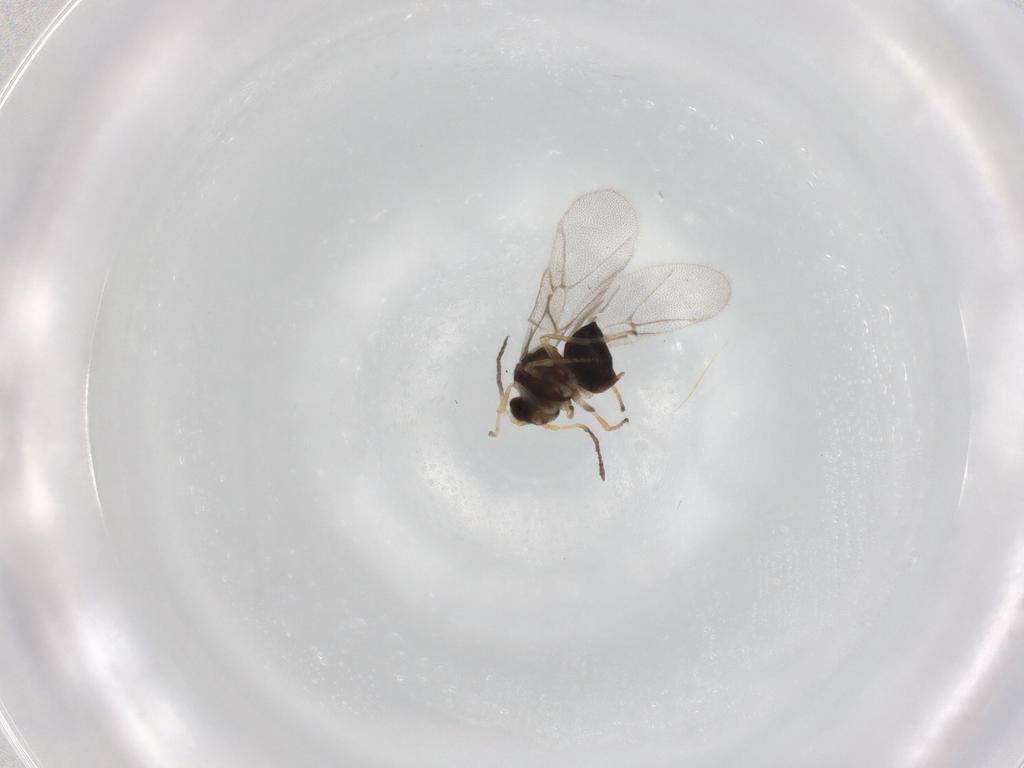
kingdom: Animalia
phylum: Arthropoda
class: Insecta
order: Hymenoptera
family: Cynipidae
